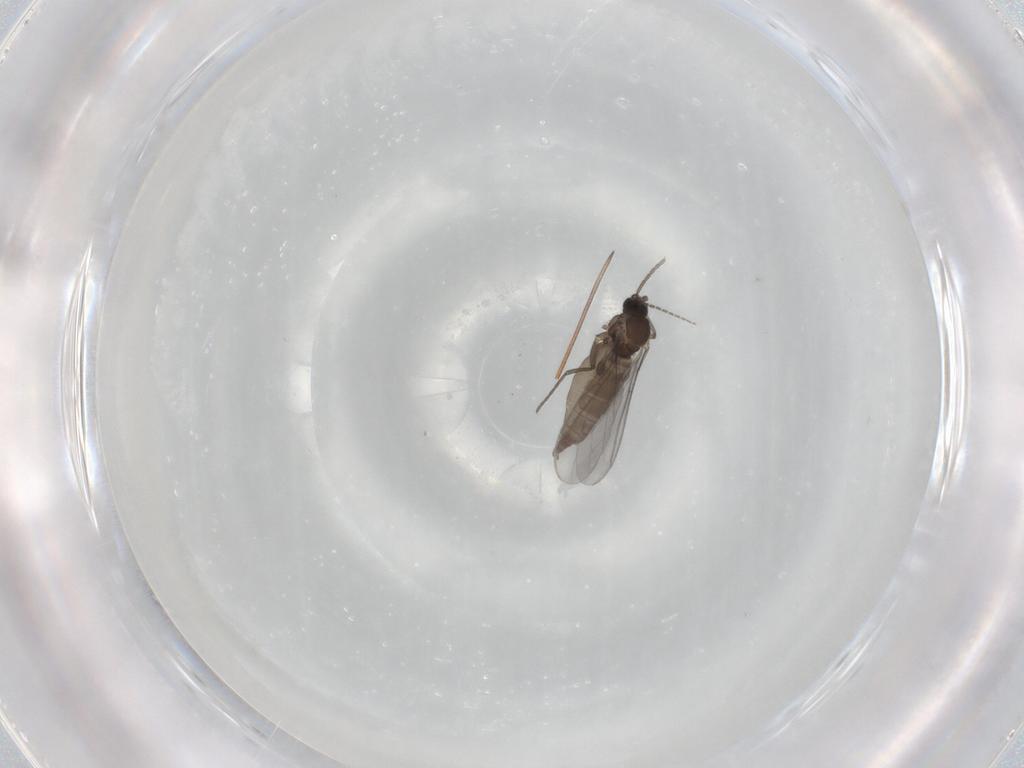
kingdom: Animalia
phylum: Arthropoda
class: Insecta
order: Diptera
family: Sciaridae
